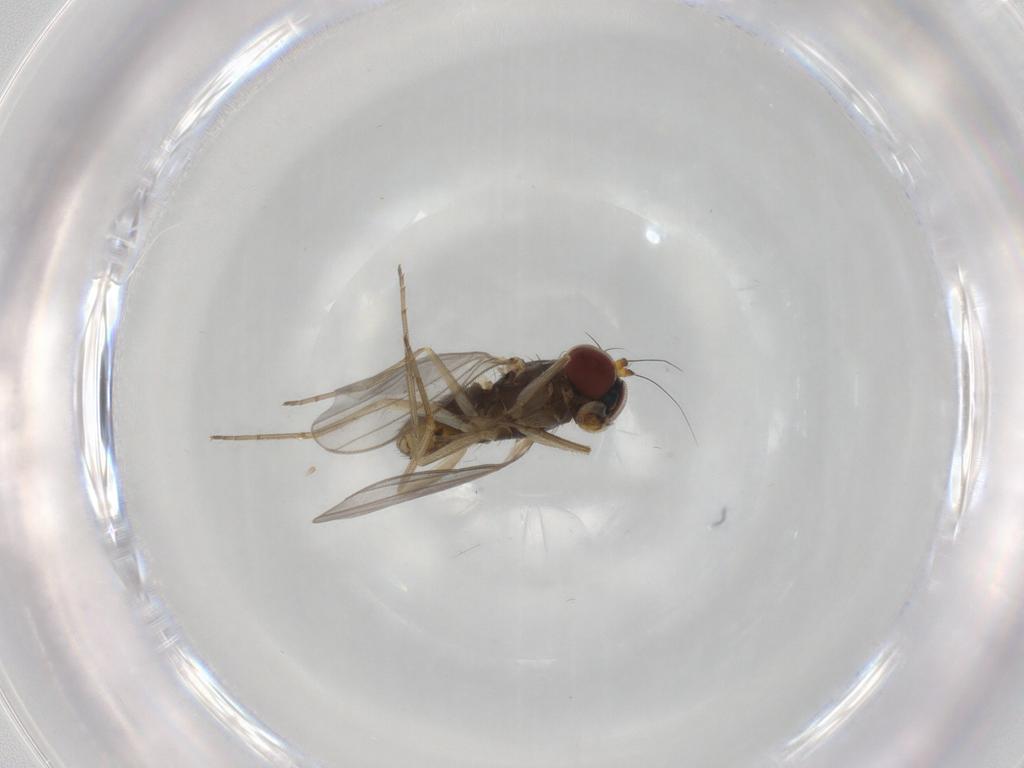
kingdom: Animalia
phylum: Arthropoda
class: Insecta
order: Diptera
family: Dolichopodidae
